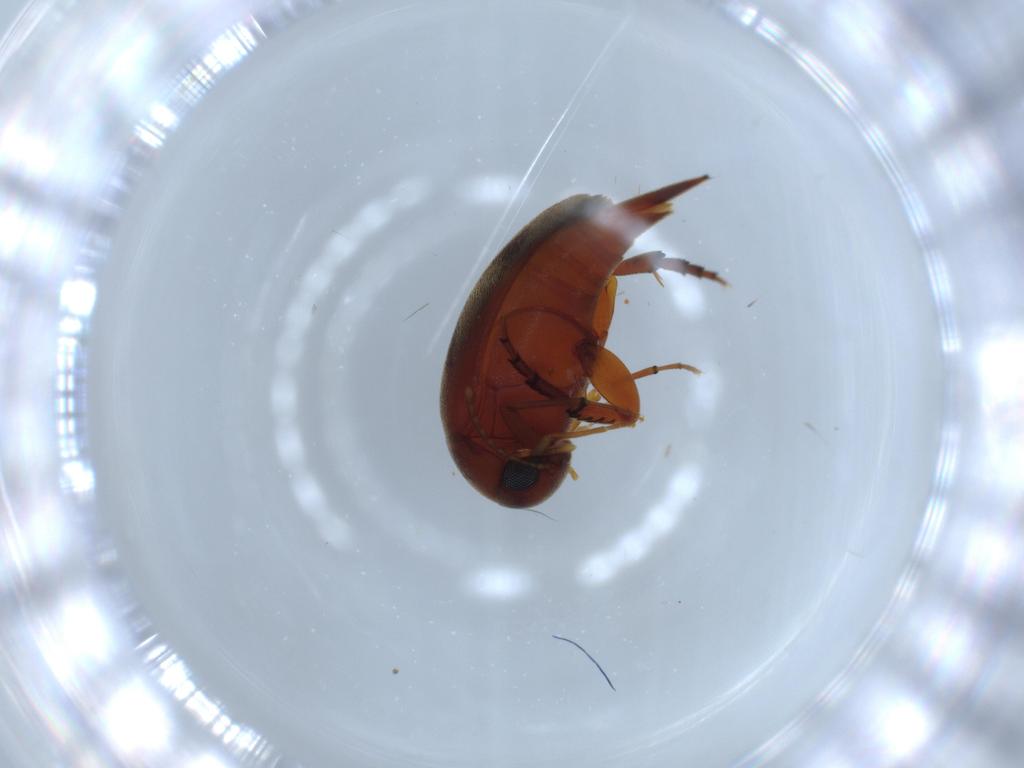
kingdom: Animalia
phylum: Arthropoda
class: Insecta
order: Coleoptera
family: Chrysomelidae
